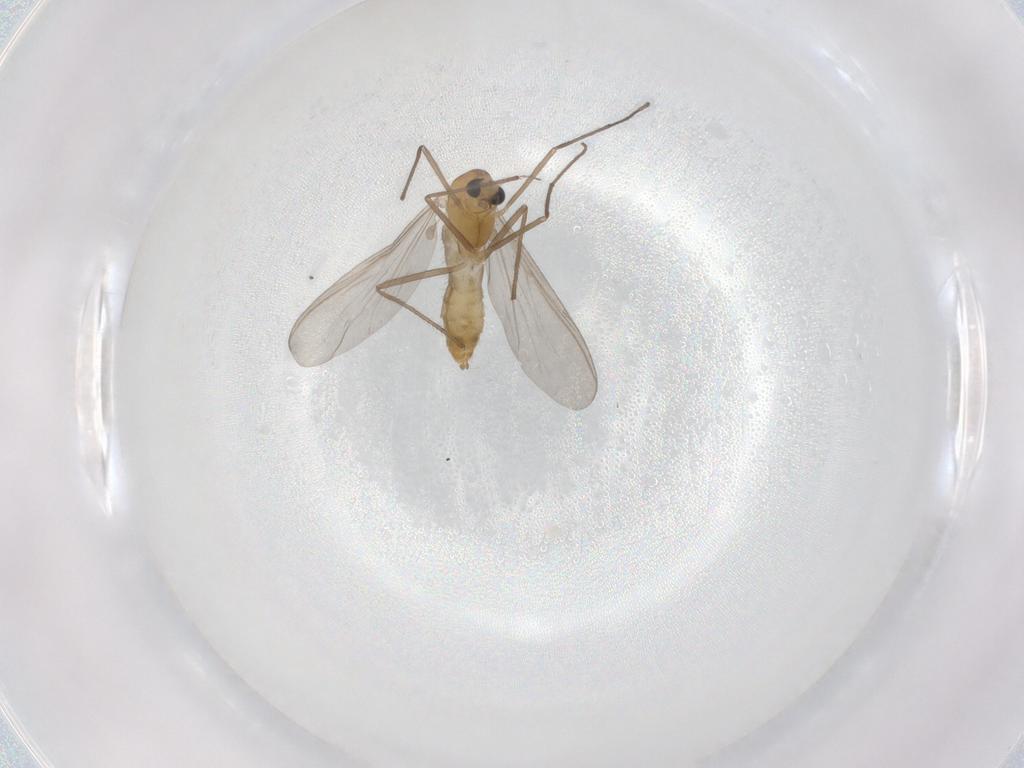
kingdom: Animalia
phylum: Arthropoda
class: Insecta
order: Diptera
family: Chironomidae
